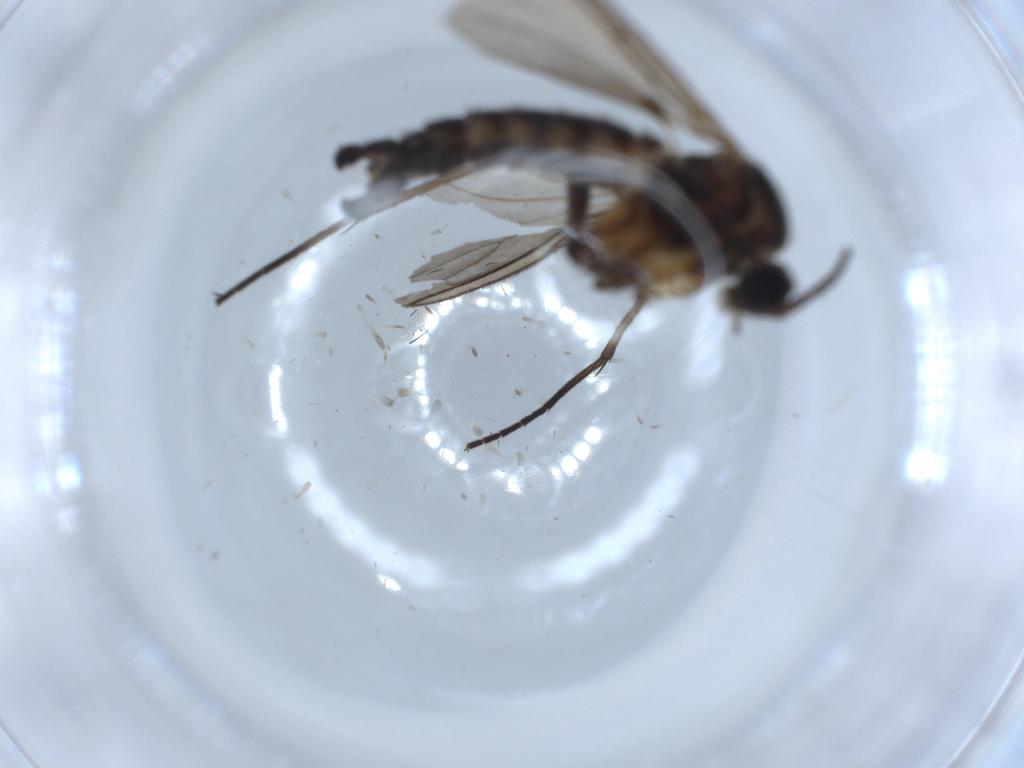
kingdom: Animalia
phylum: Arthropoda
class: Insecta
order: Diptera
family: Sciaridae
